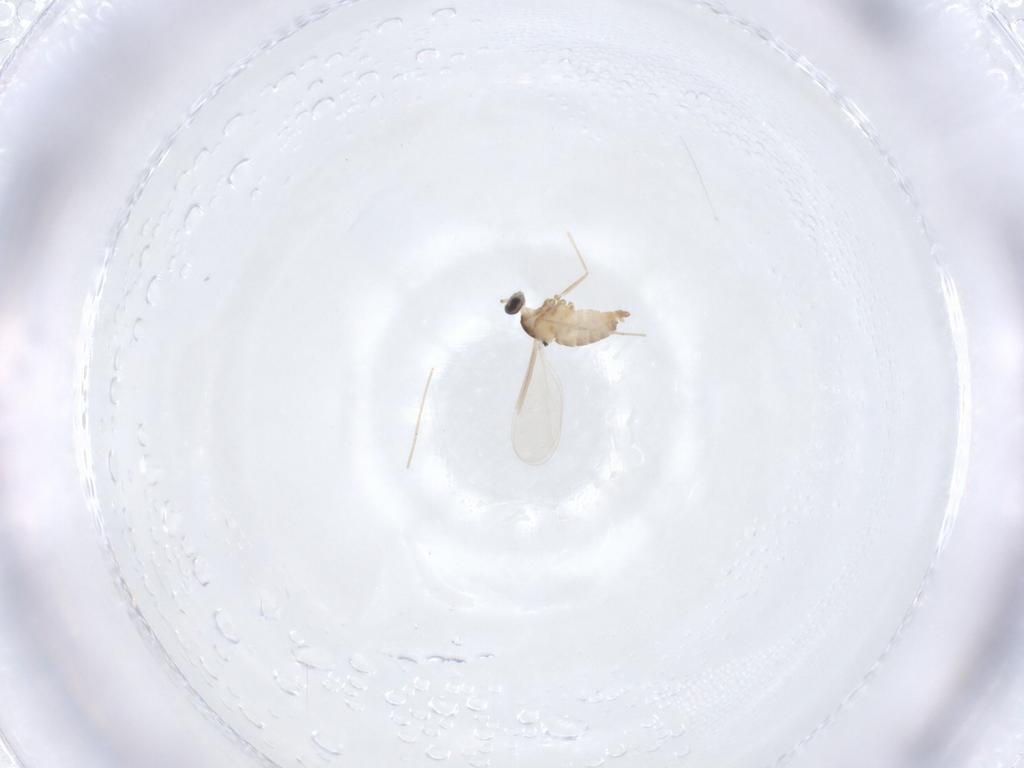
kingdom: Animalia
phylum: Arthropoda
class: Insecta
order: Diptera
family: Cecidomyiidae
